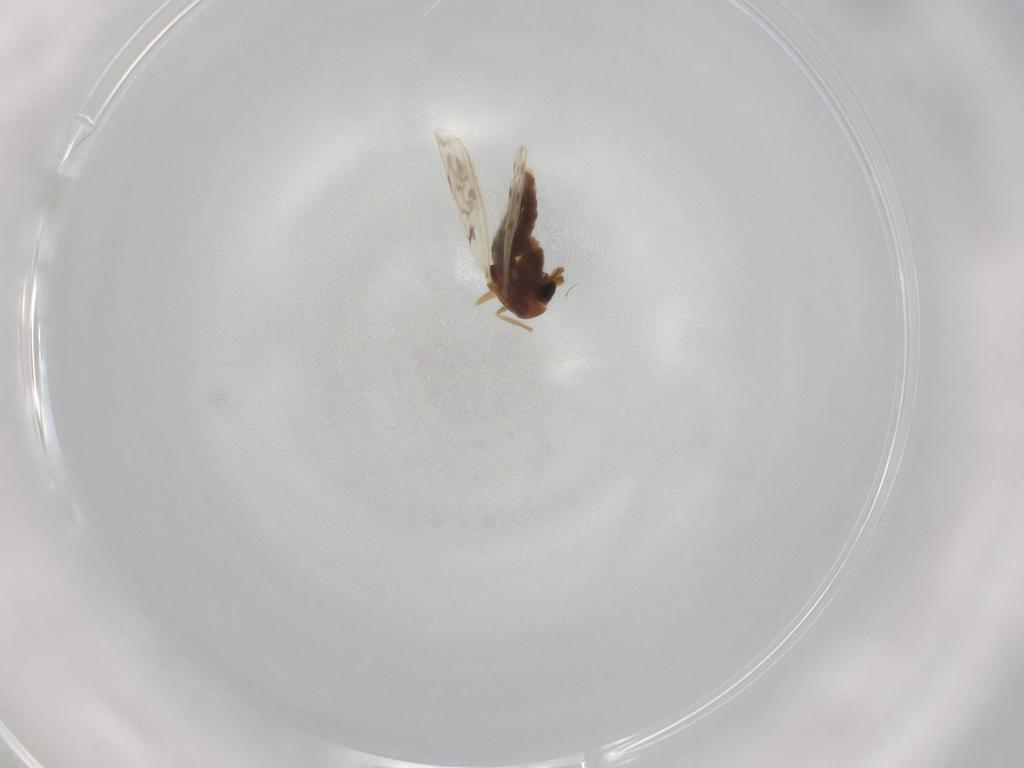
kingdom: Animalia
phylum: Arthropoda
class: Insecta
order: Diptera
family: Chironomidae
